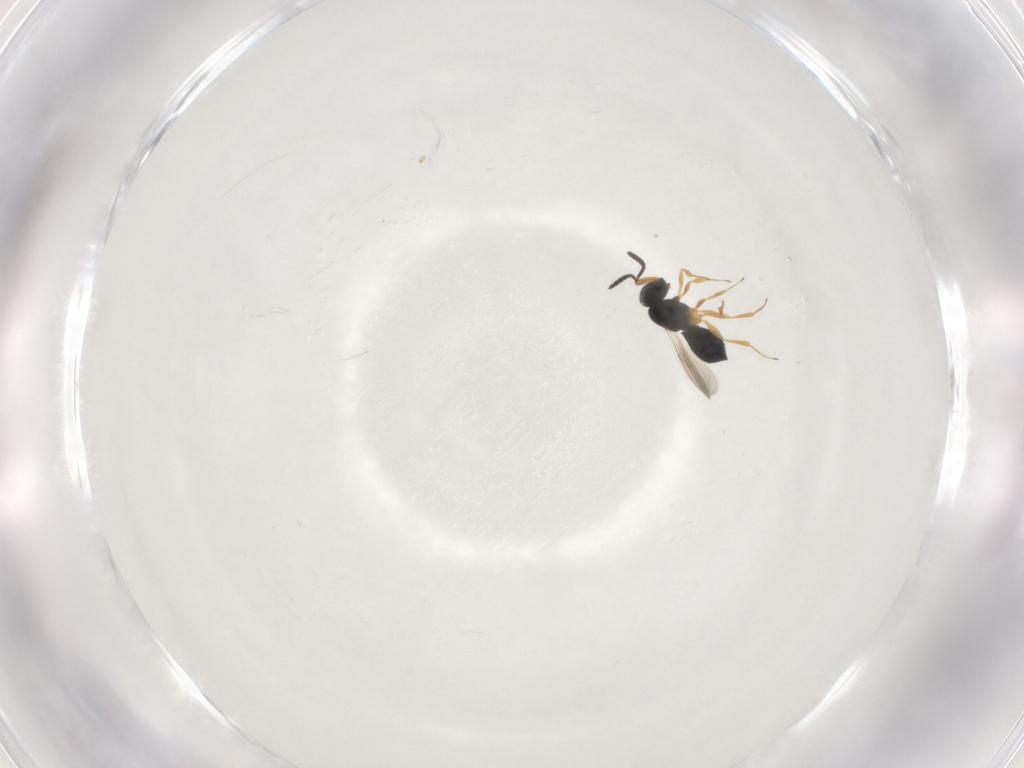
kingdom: Animalia
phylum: Arthropoda
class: Insecta
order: Hymenoptera
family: Scelionidae
